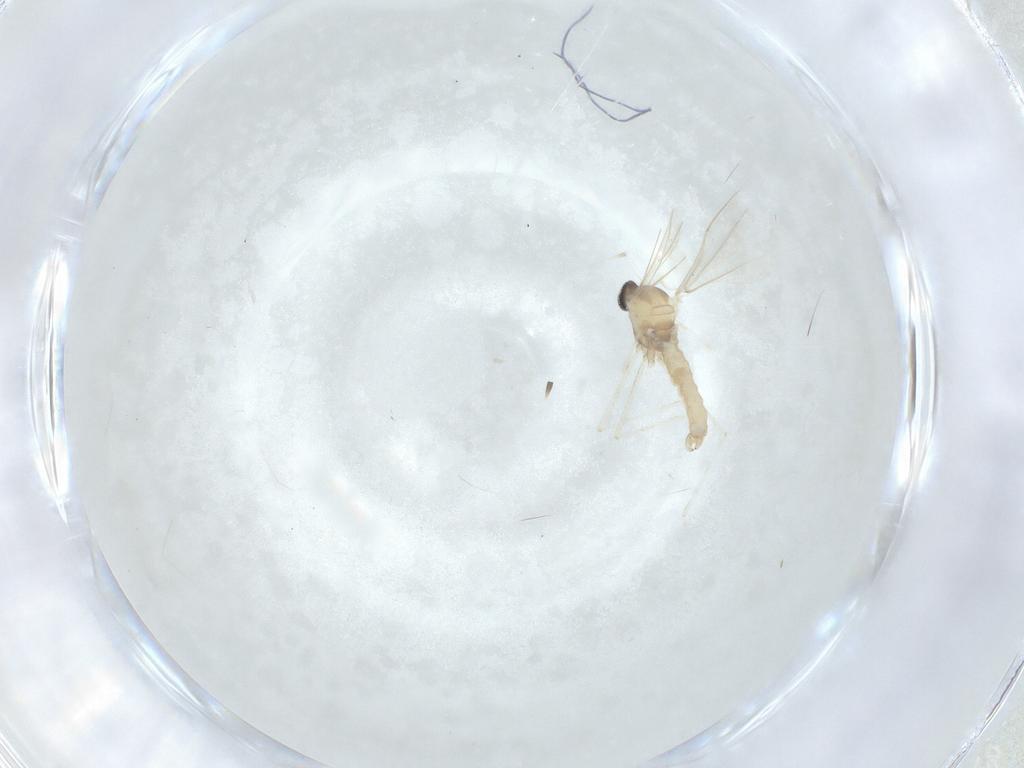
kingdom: Animalia
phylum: Arthropoda
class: Insecta
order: Diptera
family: Cecidomyiidae
